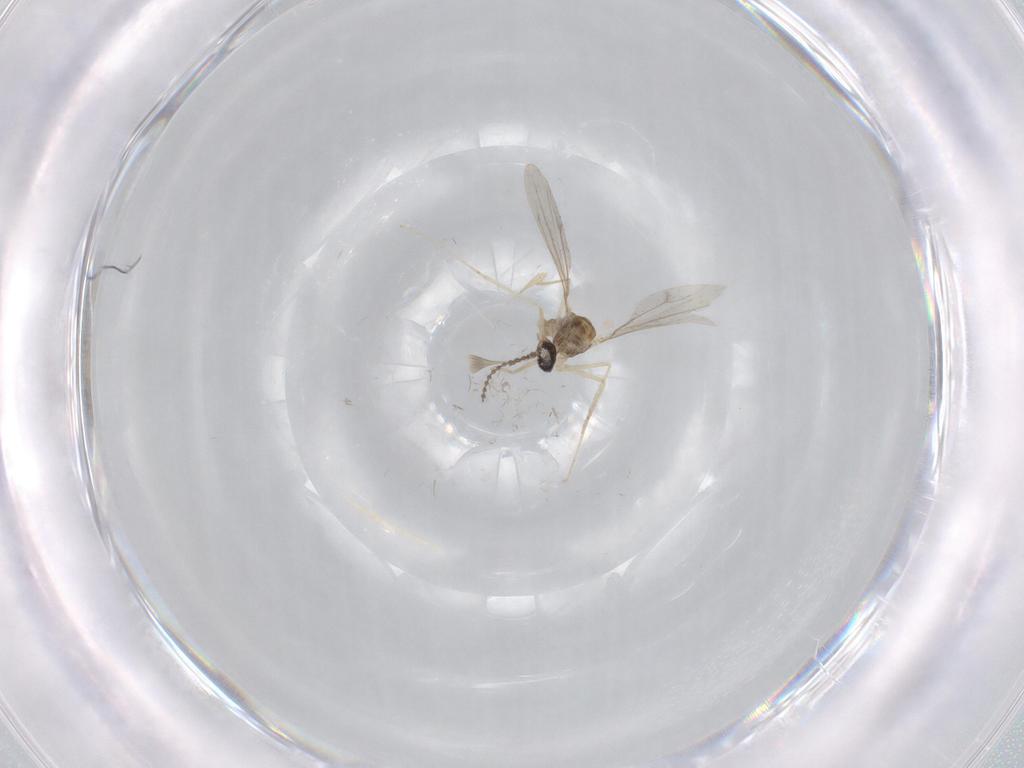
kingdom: Animalia
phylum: Arthropoda
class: Insecta
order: Diptera
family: Cecidomyiidae
